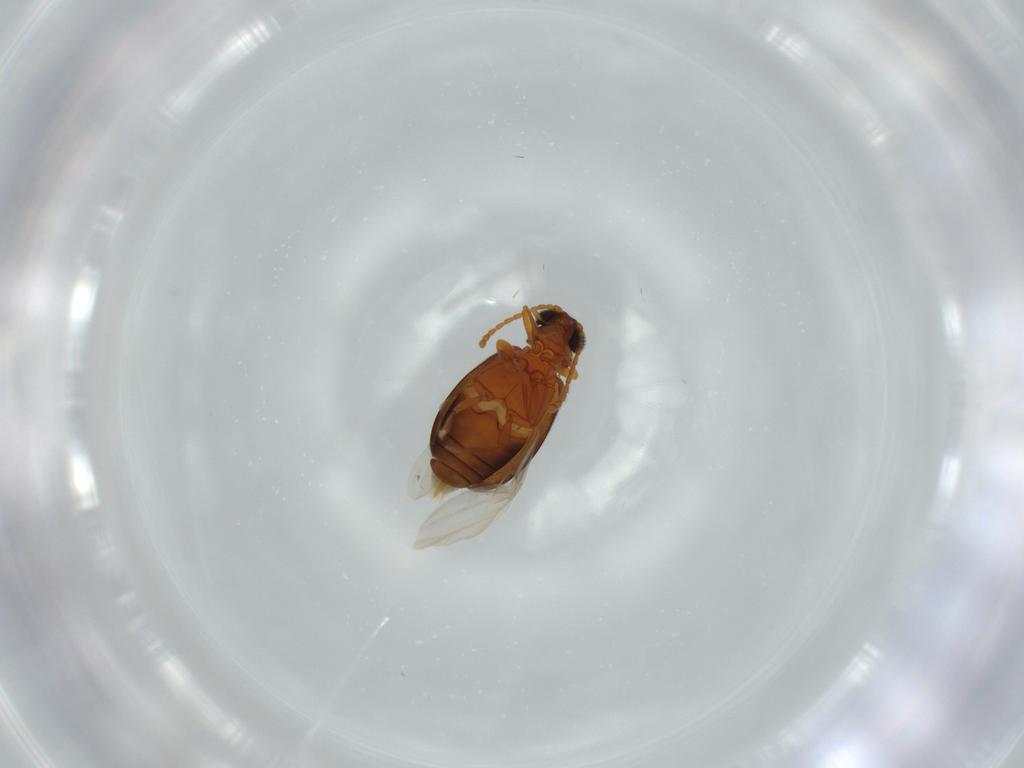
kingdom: Animalia
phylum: Arthropoda
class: Insecta
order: Coleoptera
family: Aderidae
